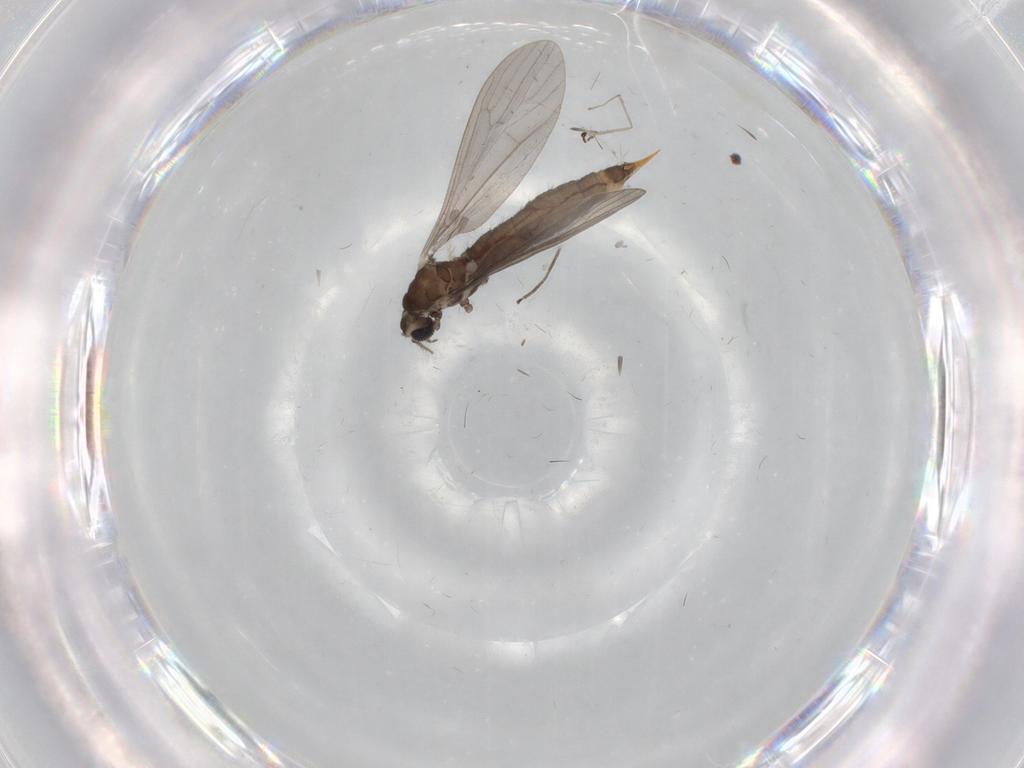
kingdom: Animalia
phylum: Arthropoda
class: Insecta
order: Diptera
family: Limoniidae
